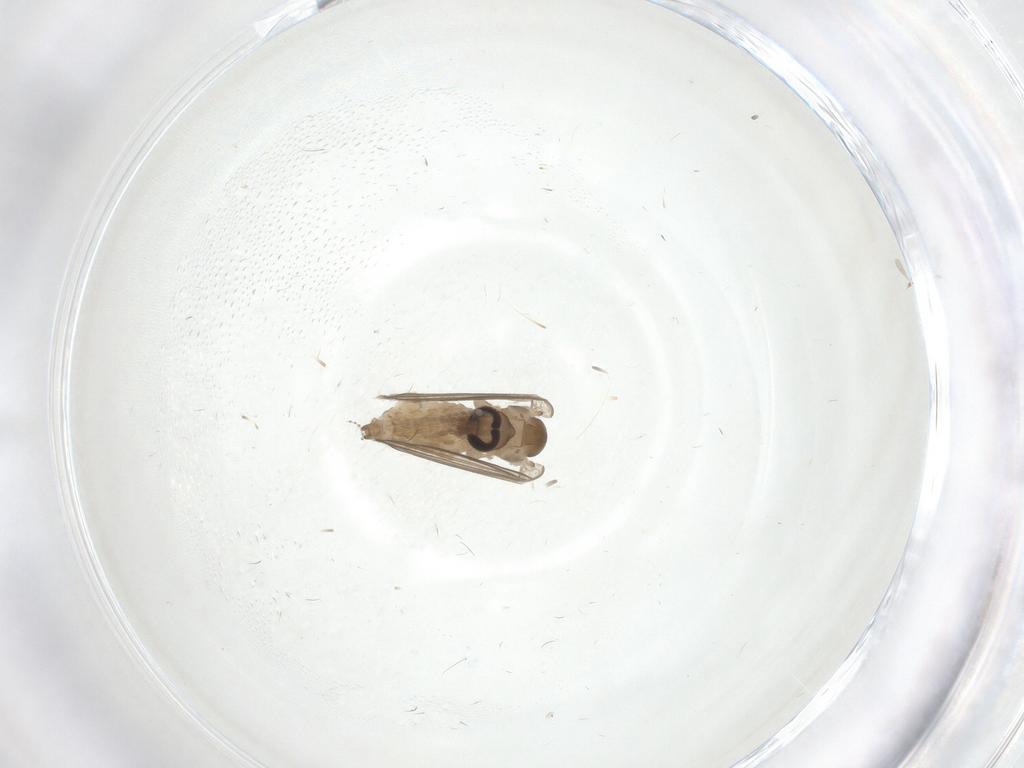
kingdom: Animalia
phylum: Arthropoda
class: Insecta
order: Diptera
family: Psychodidae
